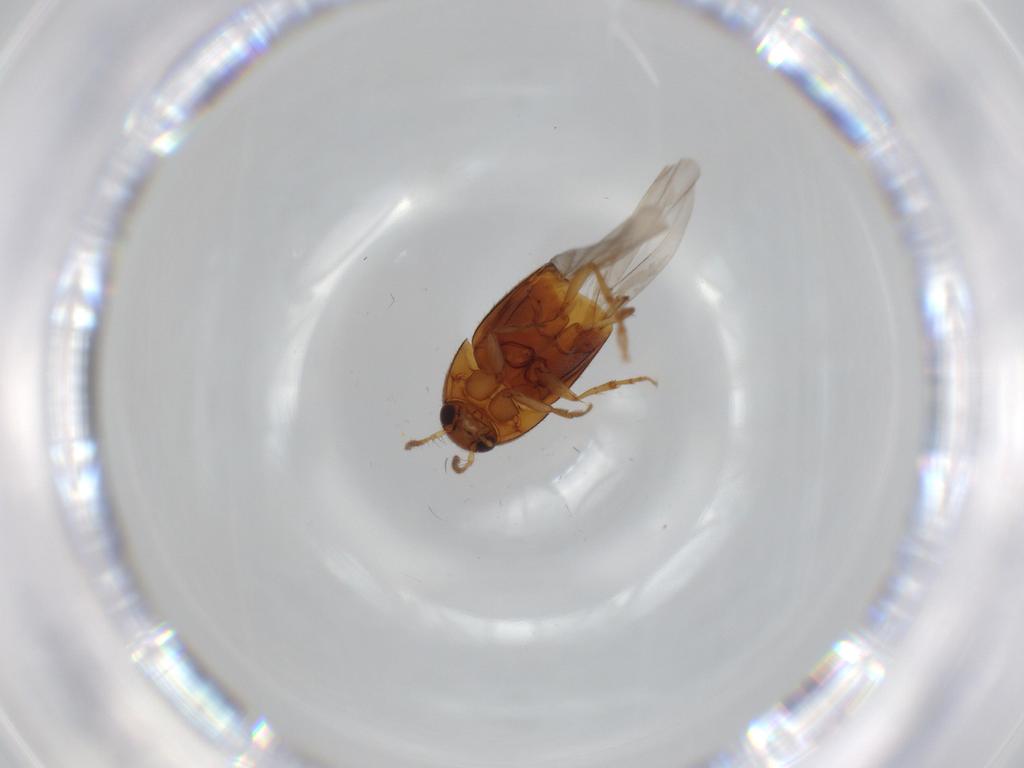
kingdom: Animalia
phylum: Arthropoda
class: Insecta
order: Coleoptera
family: Staphylinidae
